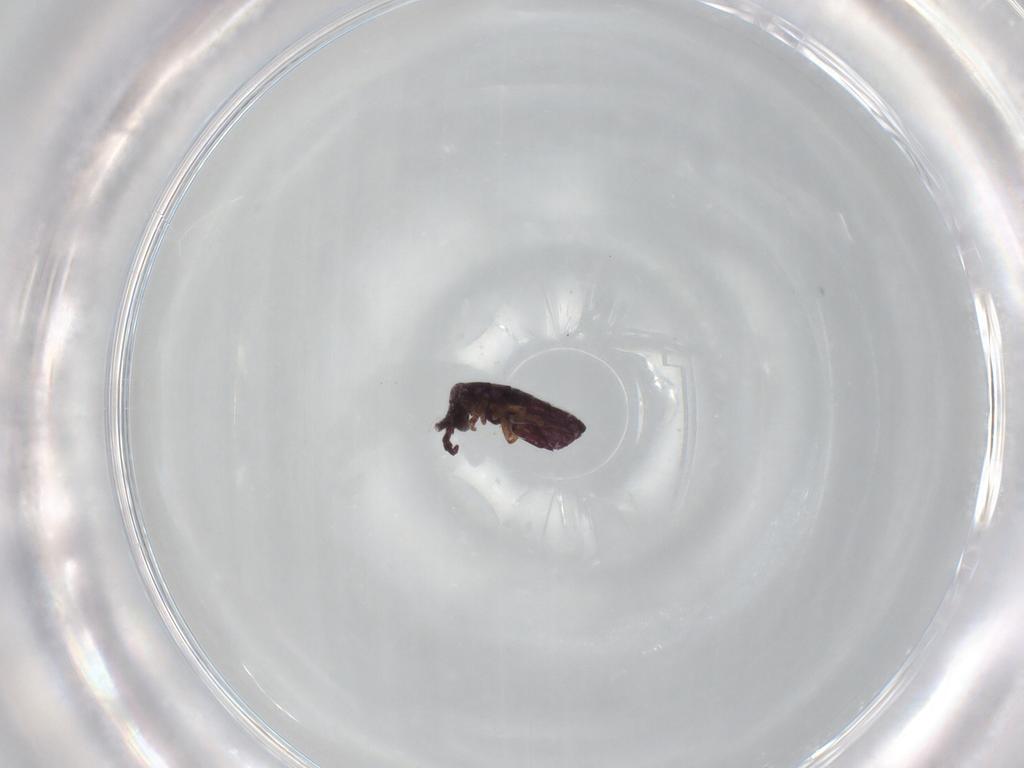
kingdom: Animalia
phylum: Arthropoda
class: Collembola
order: Entomobryomorpha
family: Isotomidae
